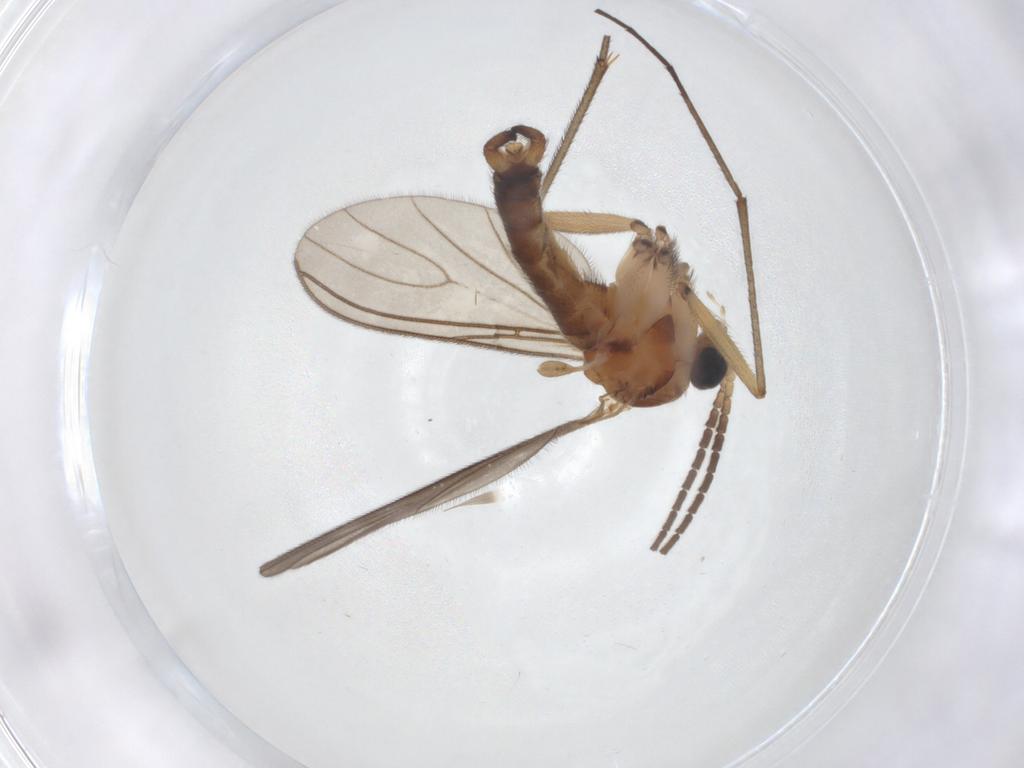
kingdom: Animalia
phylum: Arthropoda
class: Insecta
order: Diptera
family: Sciaridae
